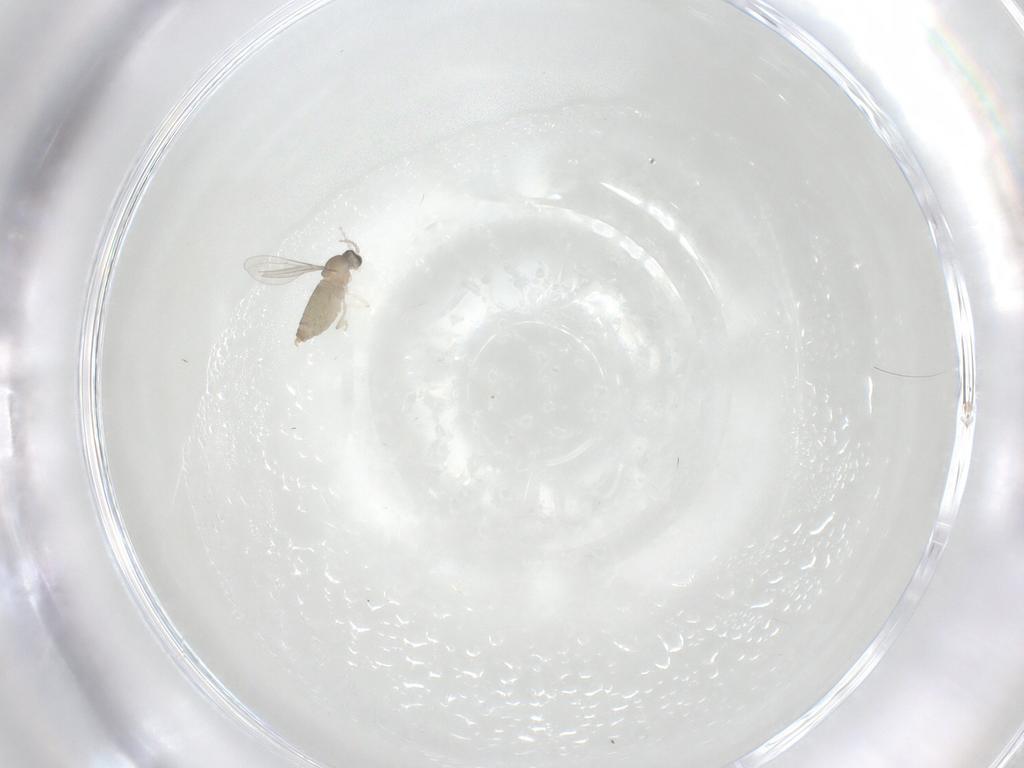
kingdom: Animalia
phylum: Arthropoda
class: Insecta
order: Diptera
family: Cecidomyiidae
